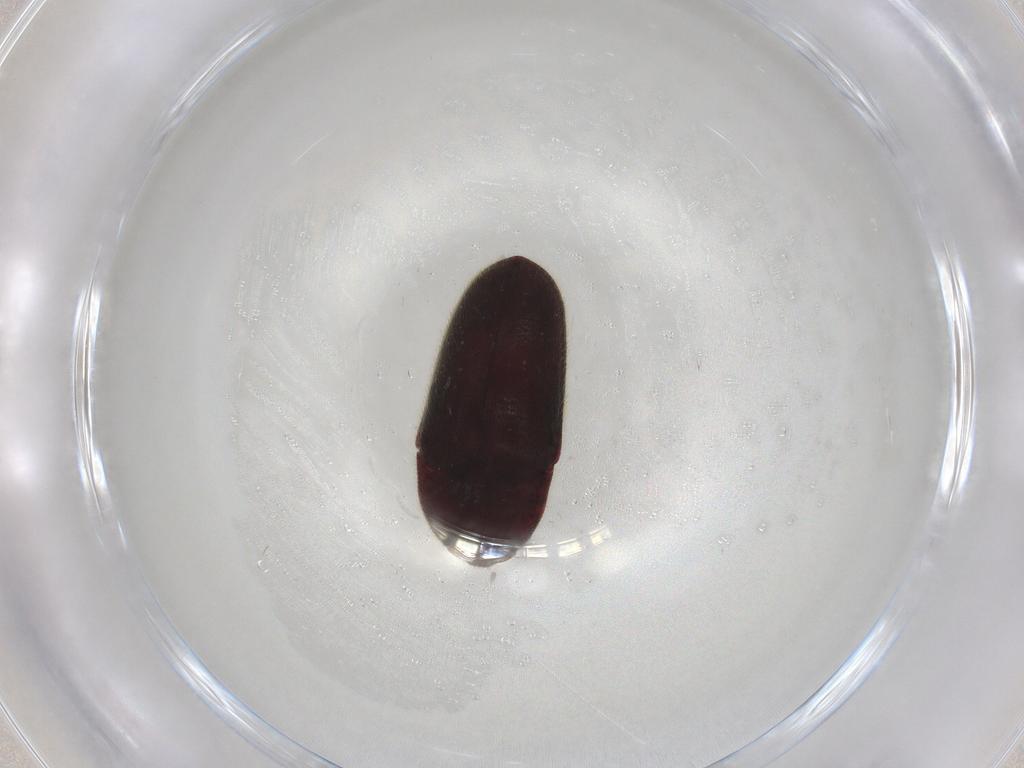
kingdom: Animalia
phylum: Arthropoda
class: Insecta
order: Coleoptera
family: Throscidae
